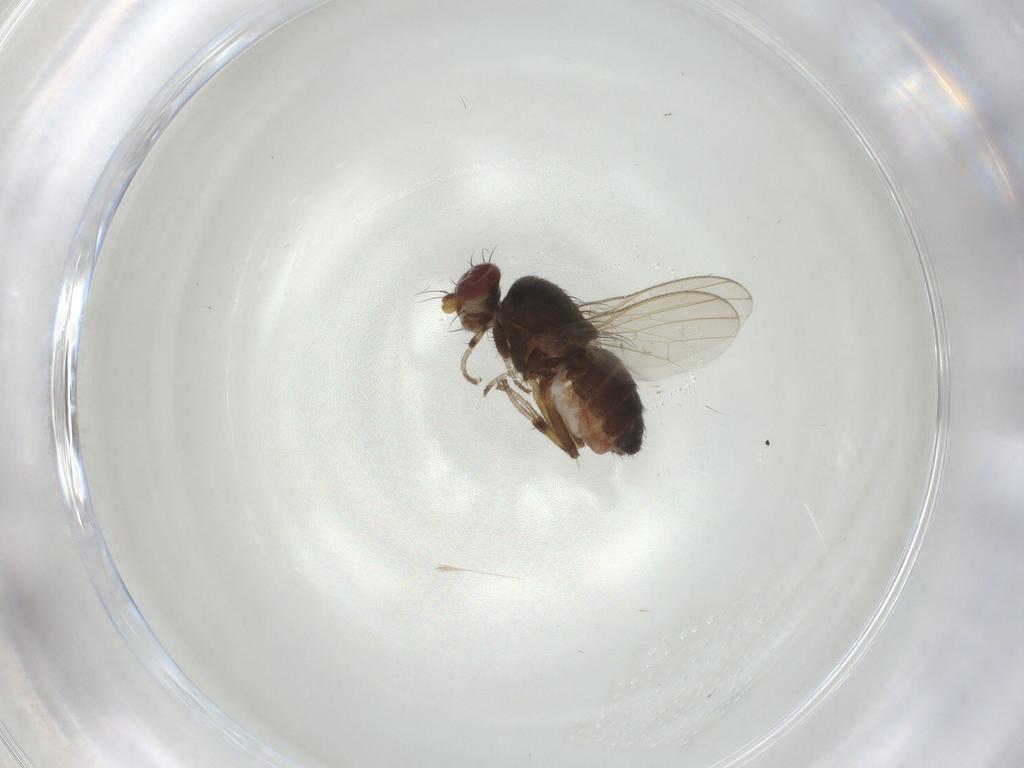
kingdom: Animalia
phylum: Arthropoda
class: Insecta
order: Diptera
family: Heleomyzidae
